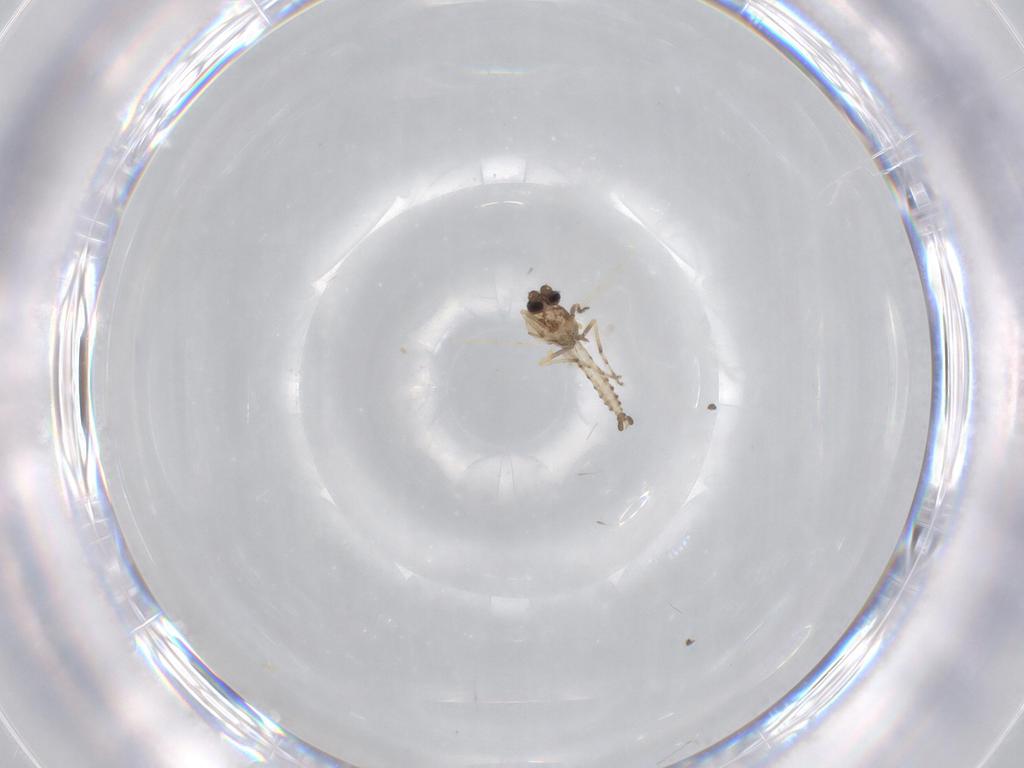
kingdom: Animalia
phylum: Arthropoda
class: Insecta
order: Diptera
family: Ceratopogonidae
